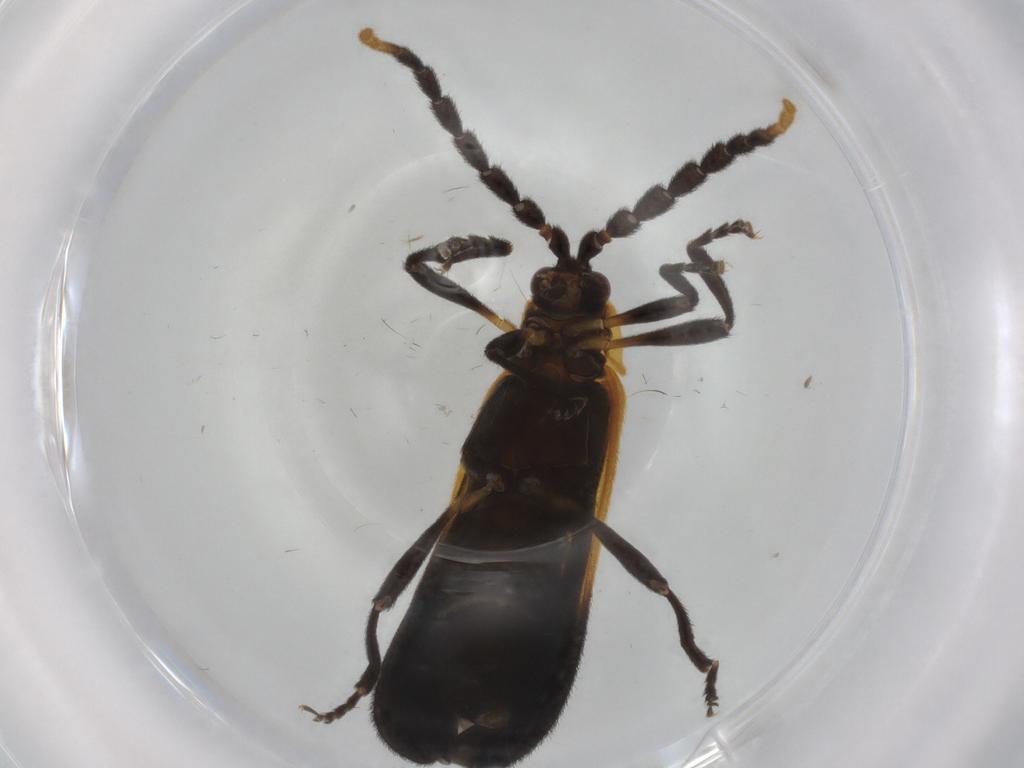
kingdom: Animalia
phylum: Arthropoda
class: Insecta
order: Coleoptera
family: Chrysomelidae
